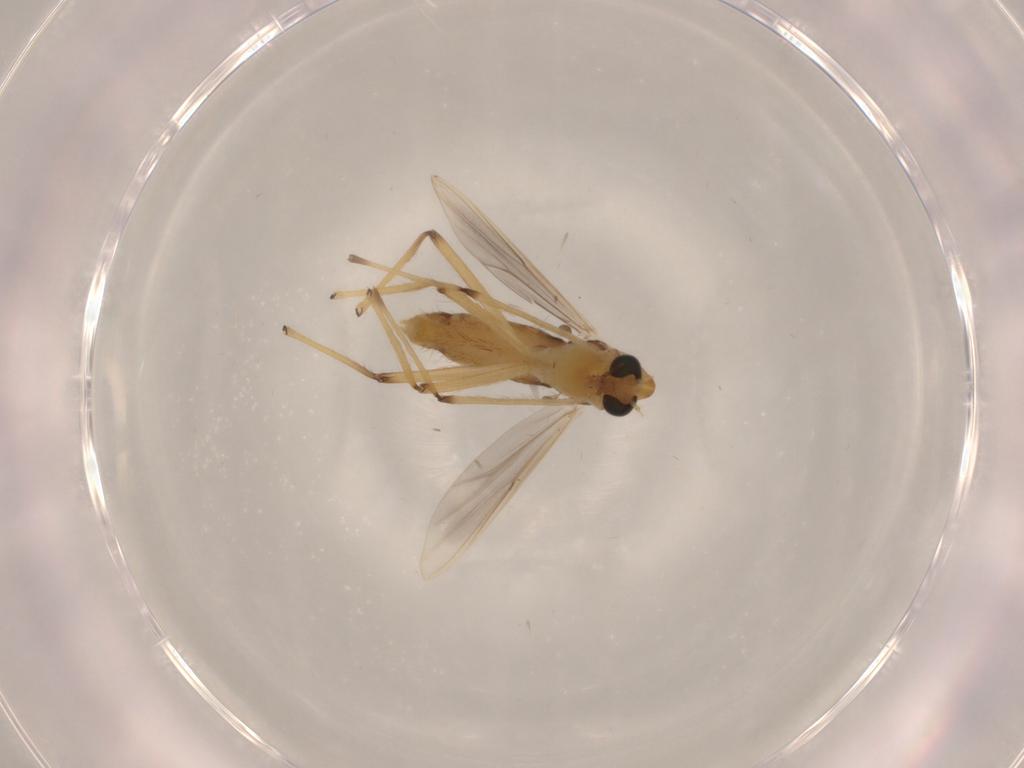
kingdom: Animalia
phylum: Arthropoda
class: Insecta
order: Diptera
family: Chironomidae
